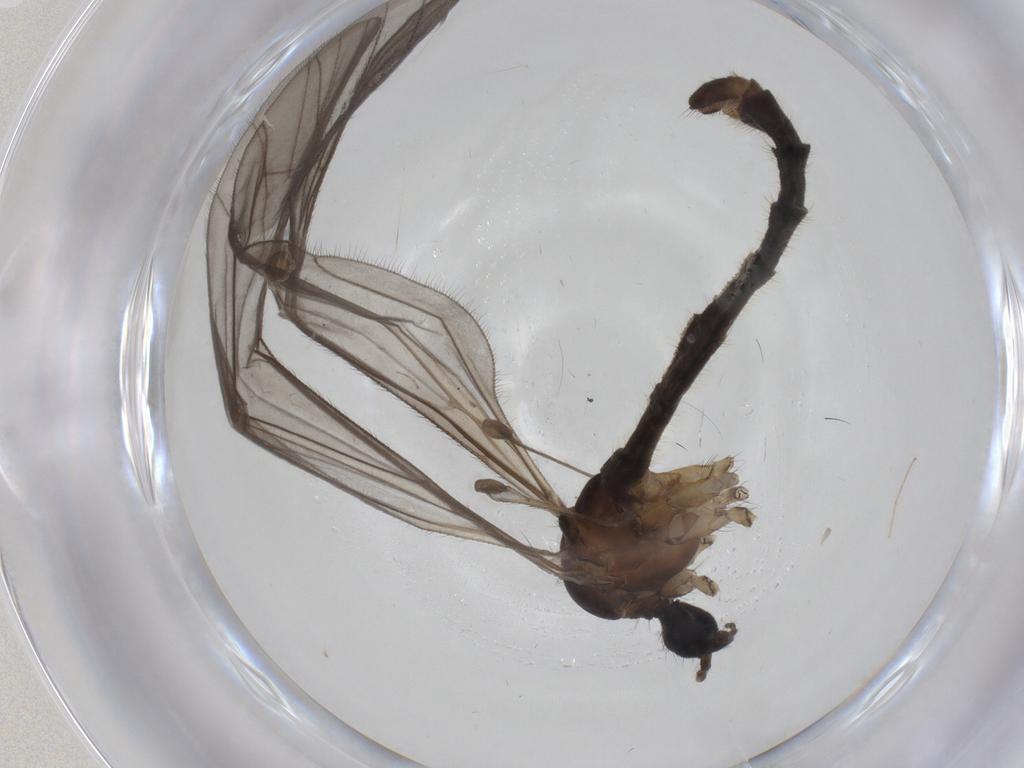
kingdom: Animalia
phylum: Arthropoda
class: Insecta
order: Diptera
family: Limoniidae
